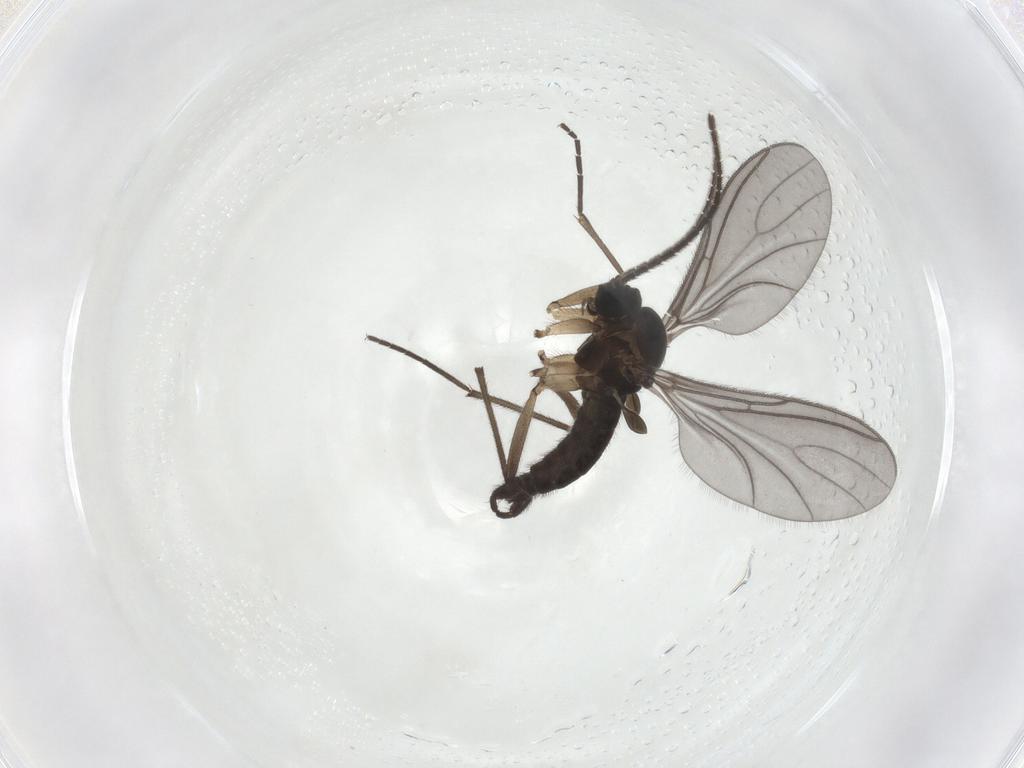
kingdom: Animalia
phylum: Arthropoda
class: Insecta
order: Diptera
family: Sciaridae
